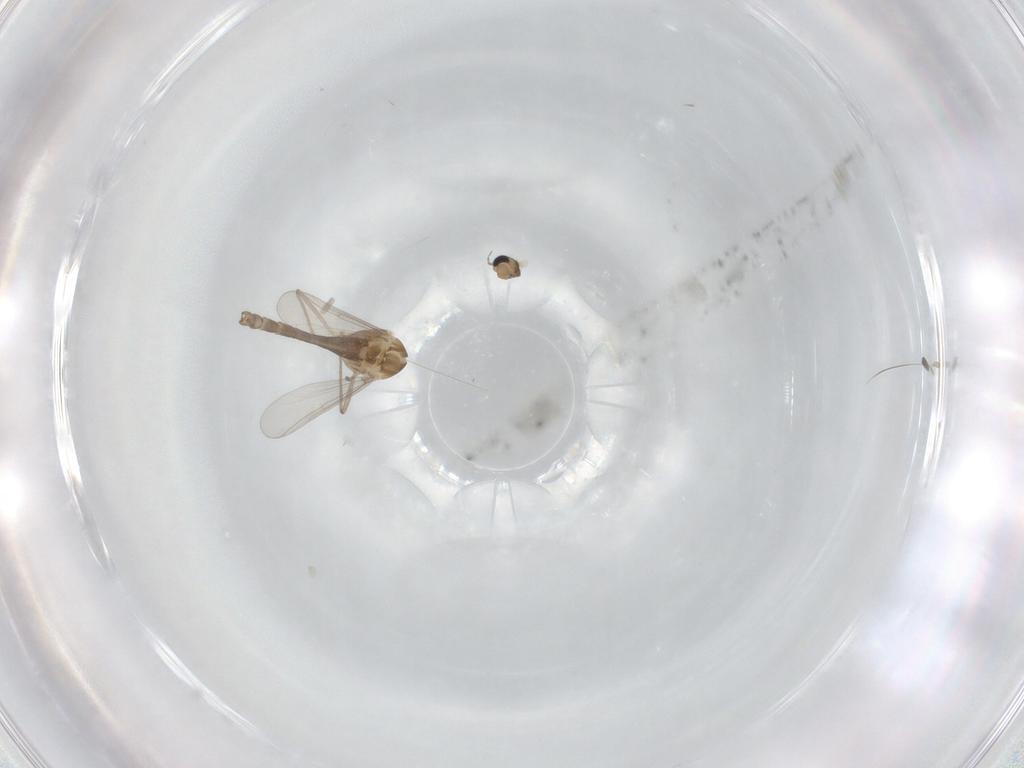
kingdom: Animalia
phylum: Arthropoda
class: Insecta
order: Diptera
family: Chironomidae
